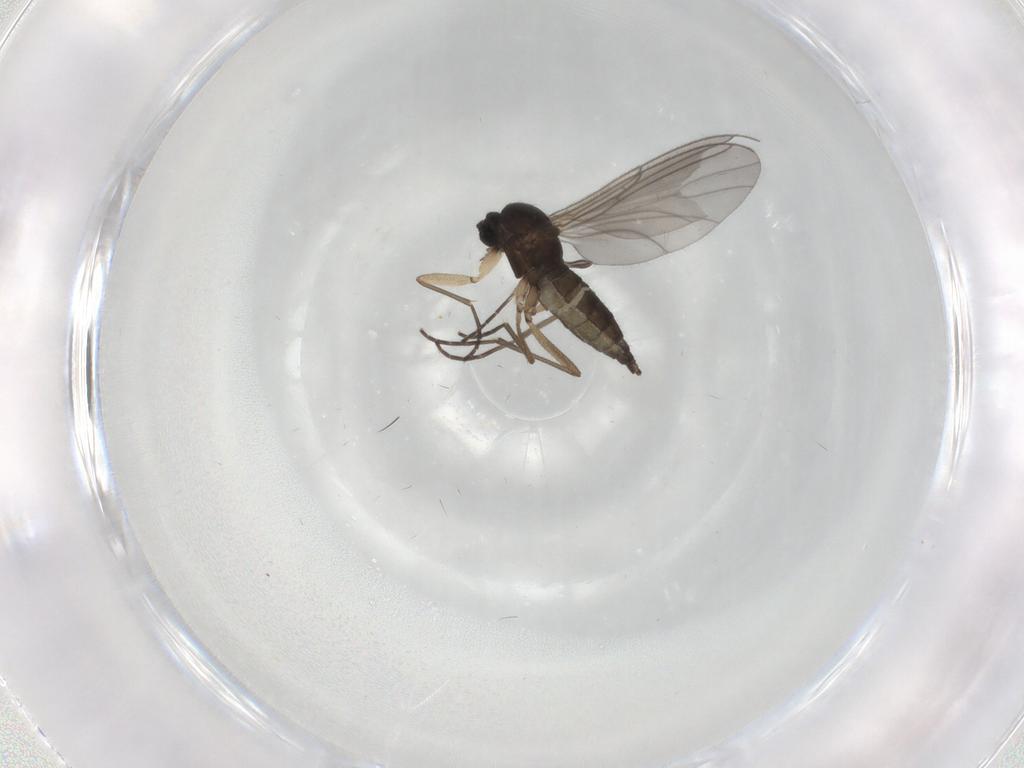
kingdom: Animalia
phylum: Arthropoda
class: Insecta
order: Diptera
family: Sciaridae
